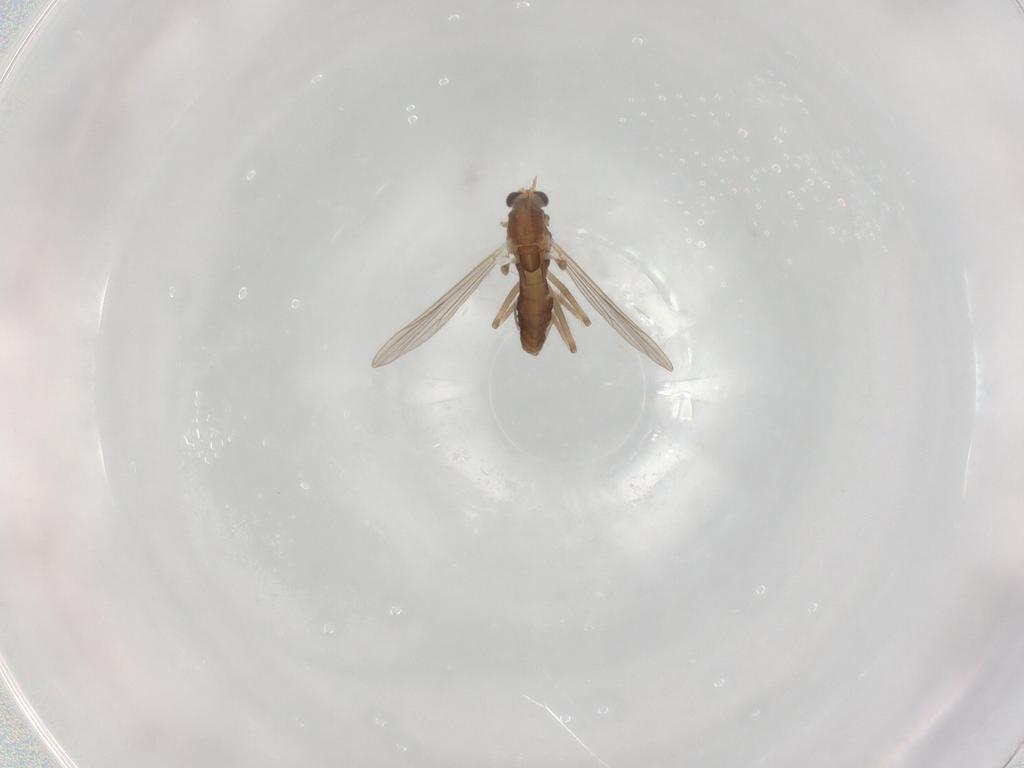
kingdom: Animalia
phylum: Arthropoda
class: Insecta
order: Diptera
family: Chironomidae
